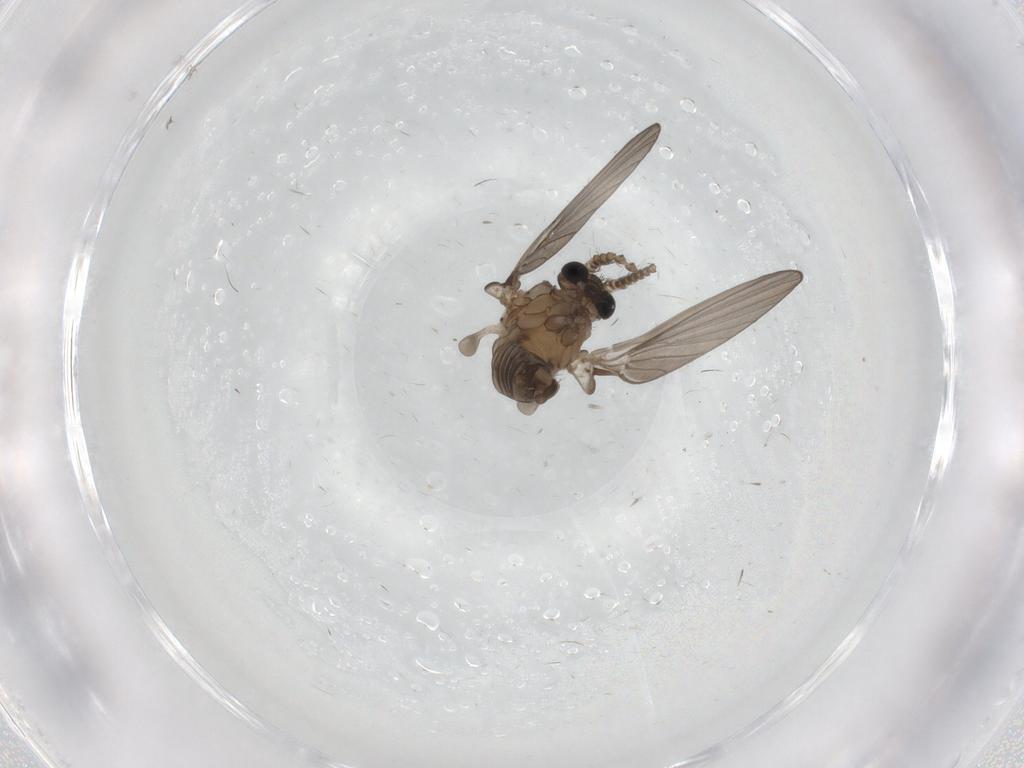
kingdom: Animalia
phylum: Arthropoda
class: Insecta
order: Diptera
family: Psychodidae
